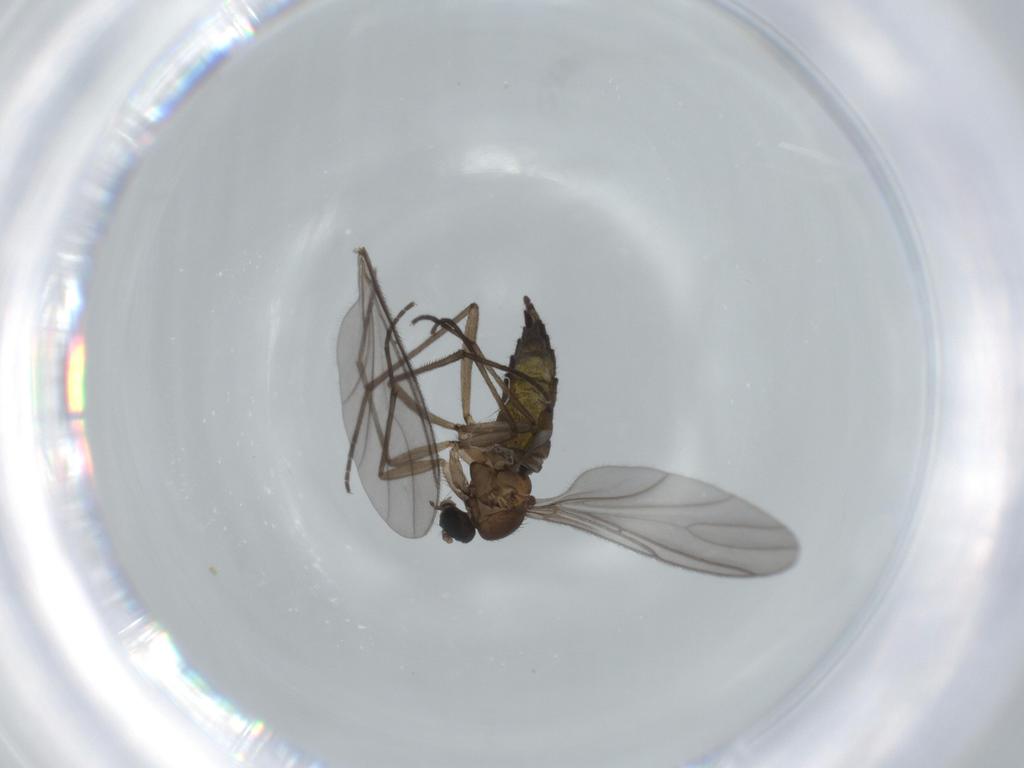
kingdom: Animalia
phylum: Arthropoda
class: Insecta
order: Diptera
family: Sciaridae
